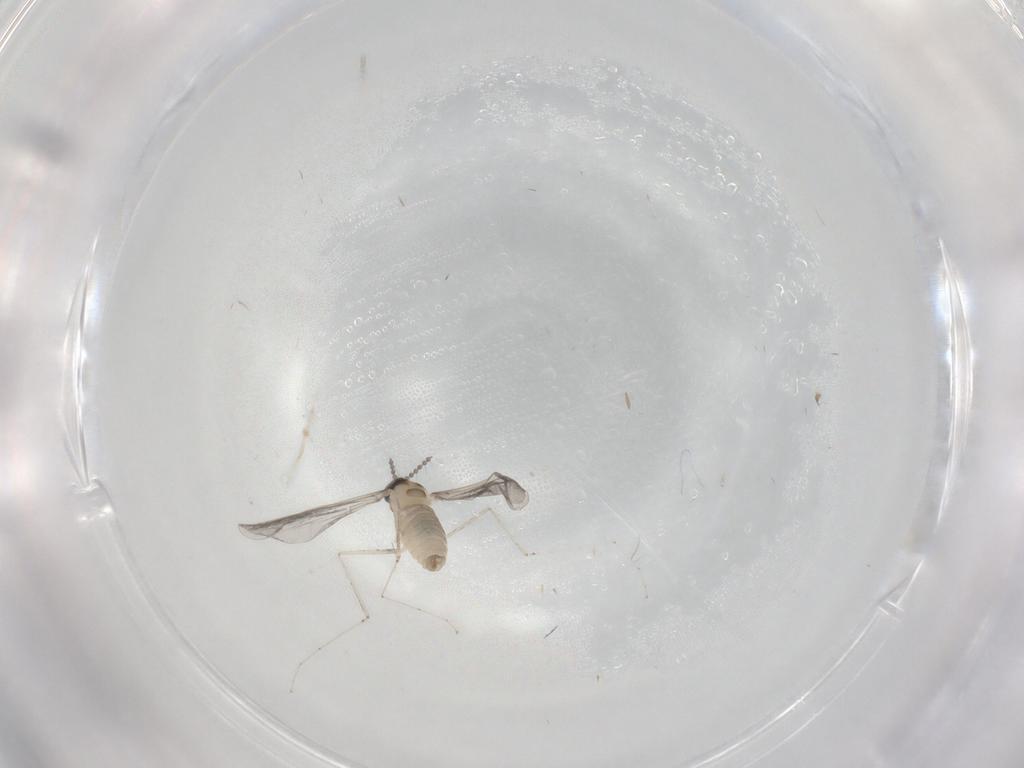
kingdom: Animalia
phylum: Arthropoda
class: Insecta
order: Diptera
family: Cecidomyiidae
